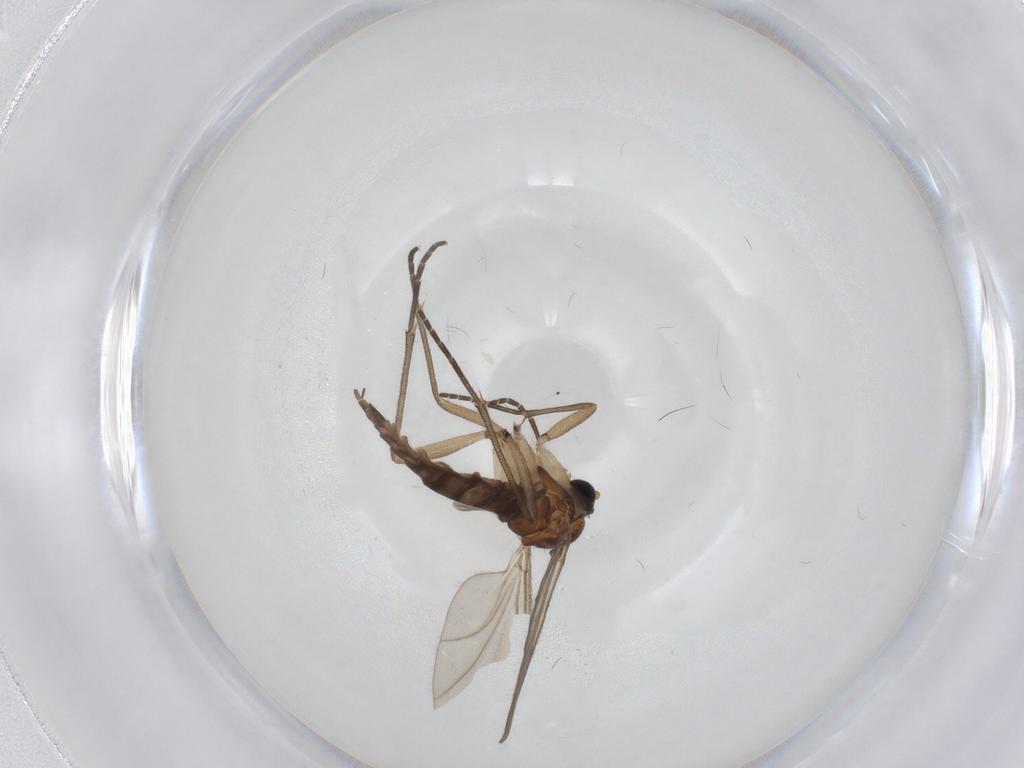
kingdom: Animalia
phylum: Arthropoda
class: Insecta
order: Diptera
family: Sciaridae
